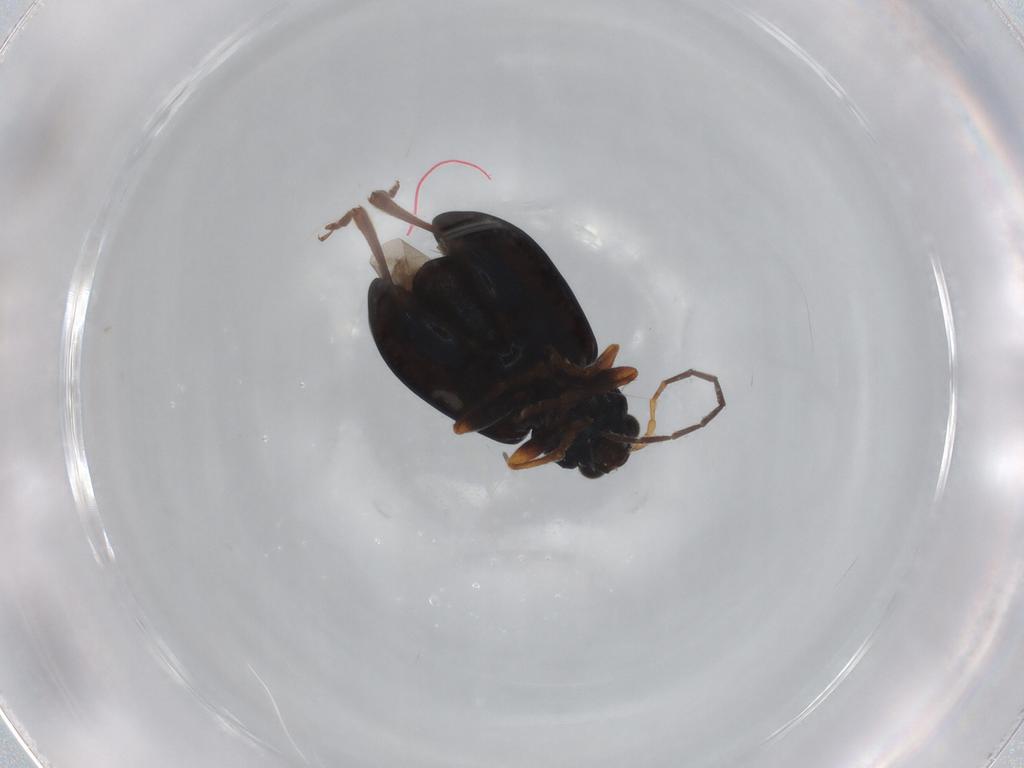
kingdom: Animalia
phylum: Arthropoda
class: Insecta
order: Coleoptera
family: Chrysomelidae
